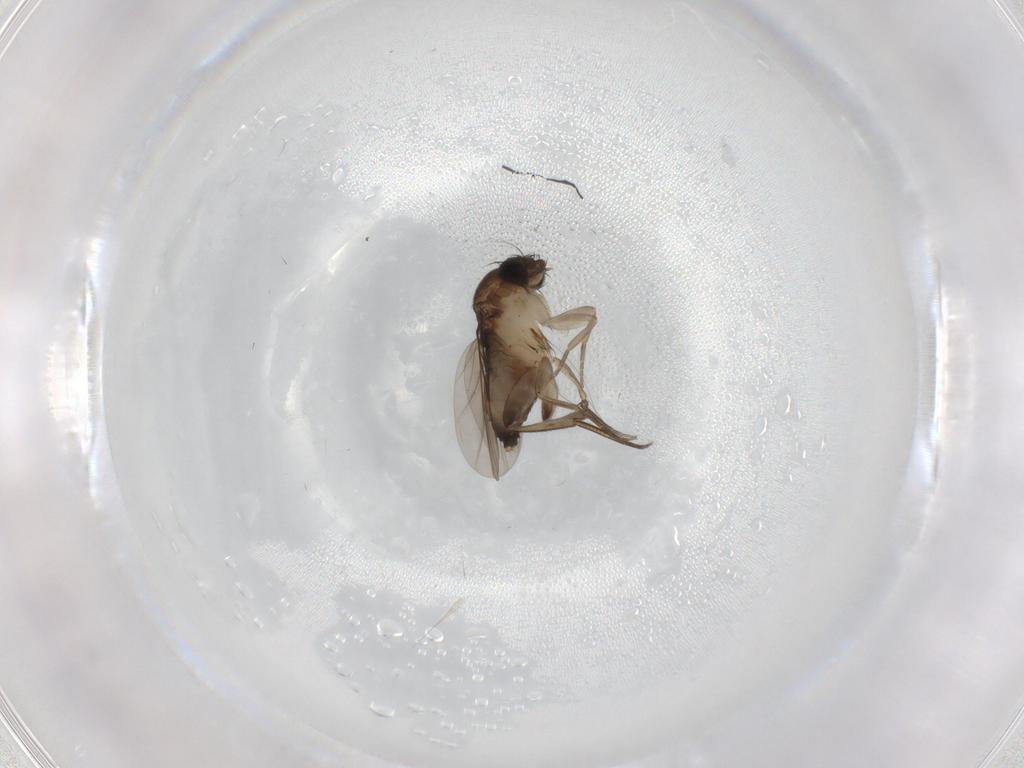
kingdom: Animalia
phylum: Arthropoda
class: Insecta
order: Diptera
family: Phoridae
